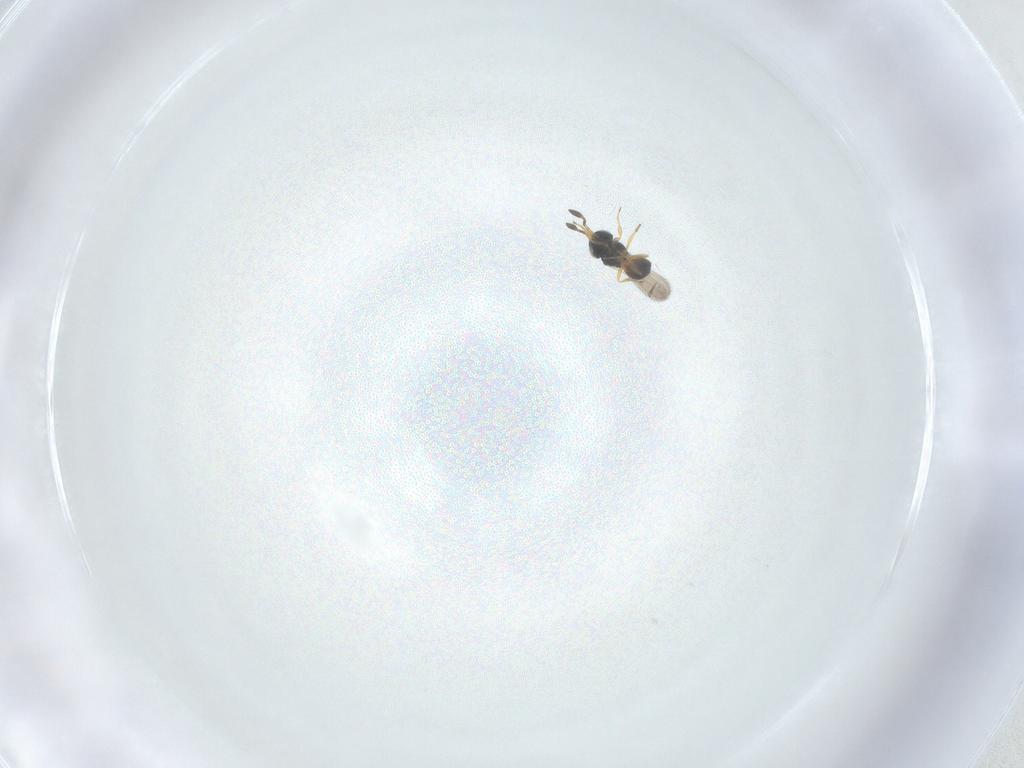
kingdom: Animalia
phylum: Arthropoda
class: Insecta
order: Hymenoptera
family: Scelionidae
